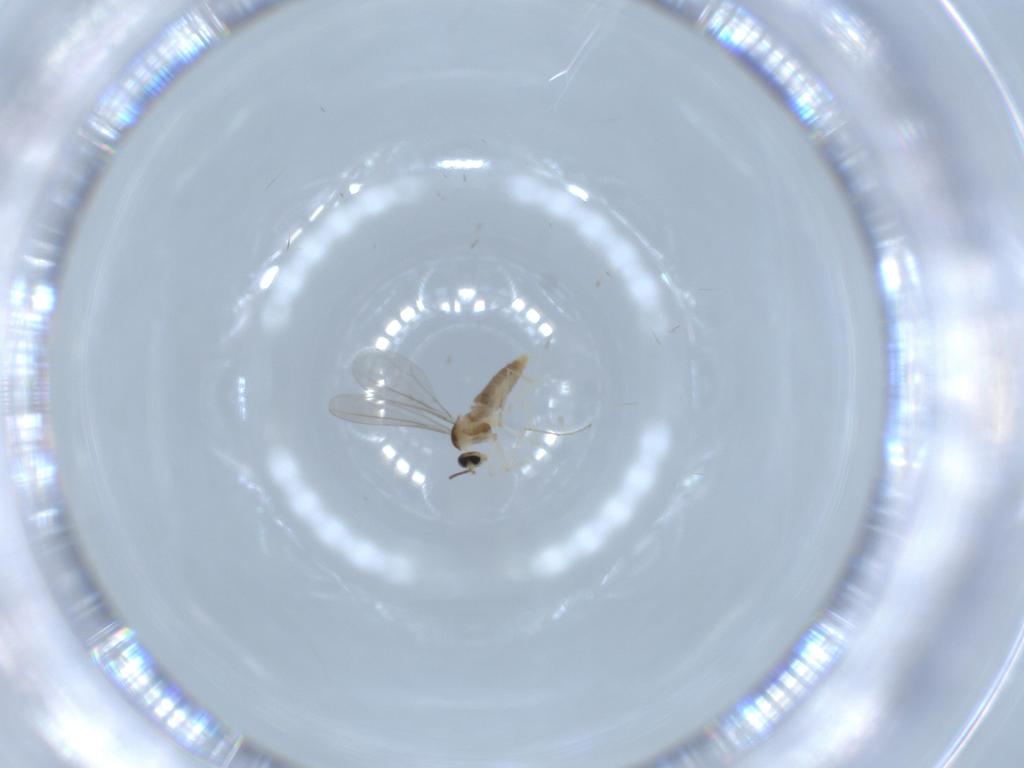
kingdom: Animalia
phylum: Arthropoda
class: Insecta
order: Diptera
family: Cecidomyiidae
